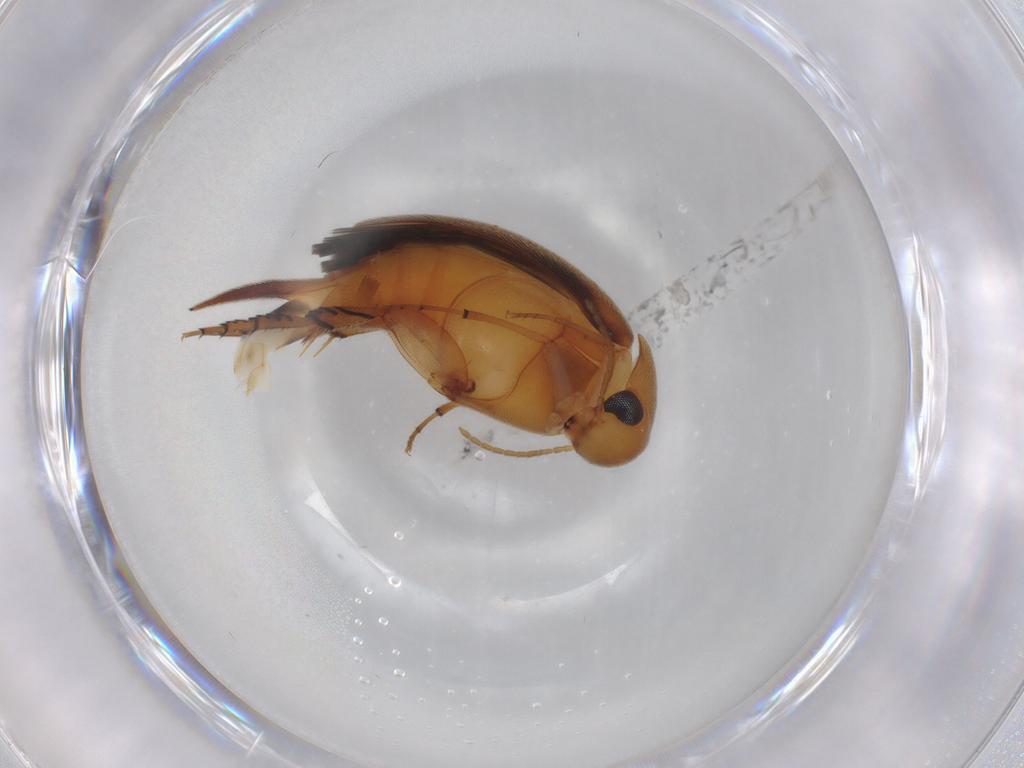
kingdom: Animalia
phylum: Arthropoda
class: Insecta
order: Coleoptera
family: Mordellidae
